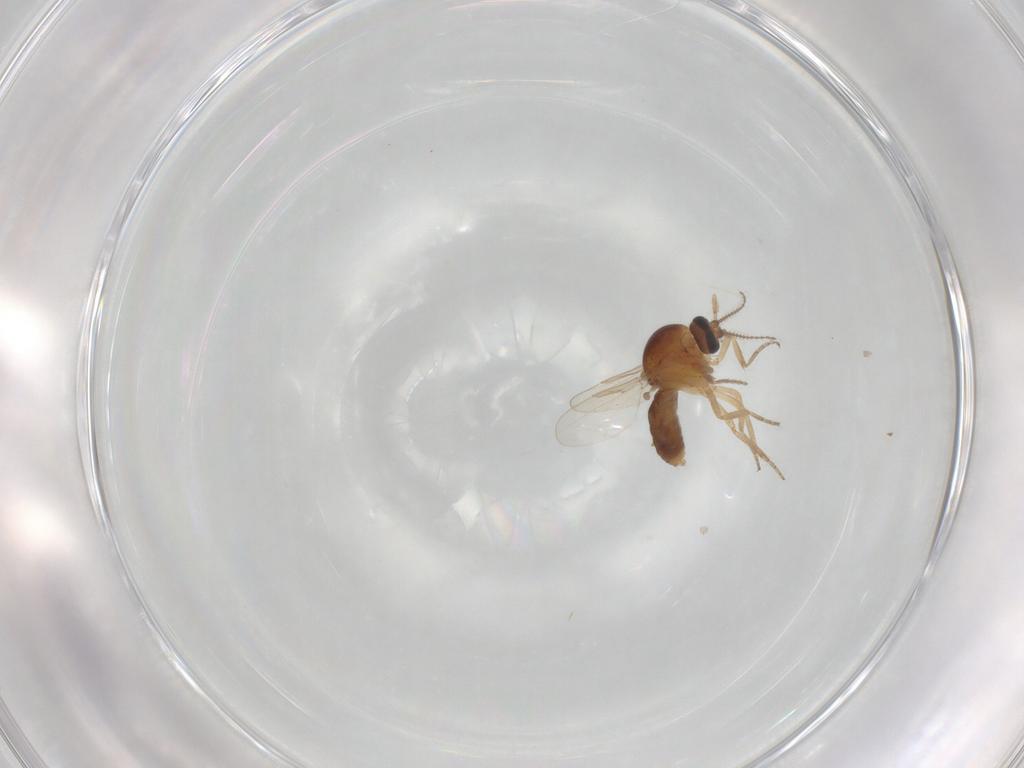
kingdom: Animalia
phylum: Arthropoda
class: Insecta
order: Diptera
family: Ceratopogonidae
